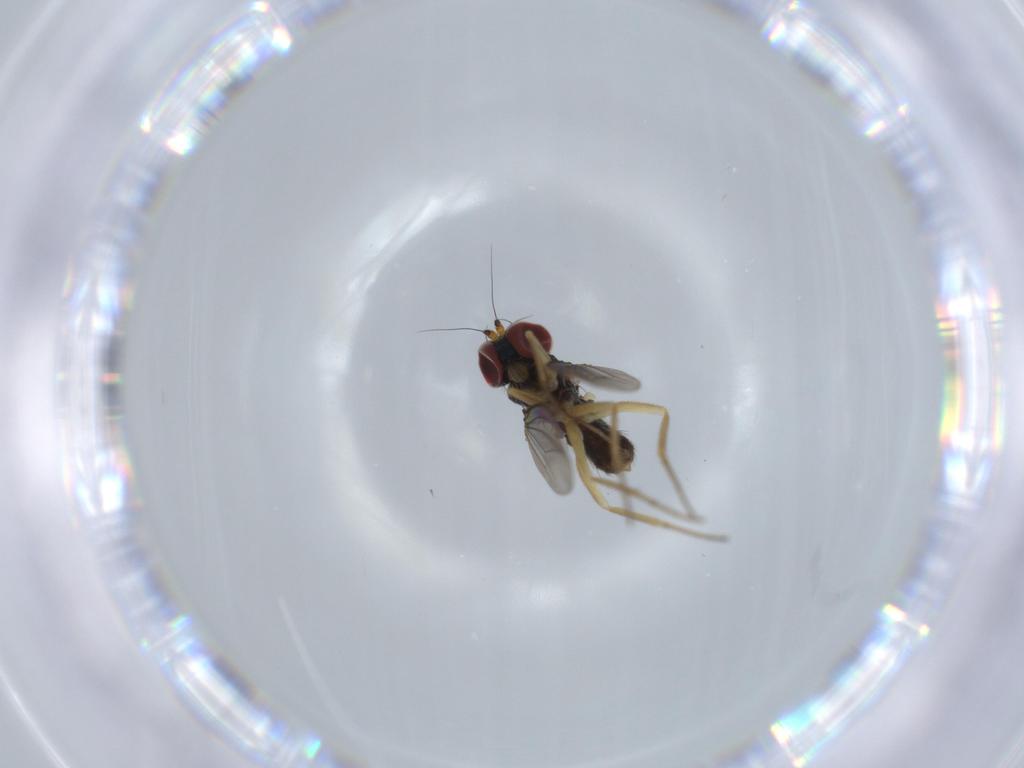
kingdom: Animalia
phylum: Arthropoda
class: Insecta
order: Diptera
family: Dolichopodidae
